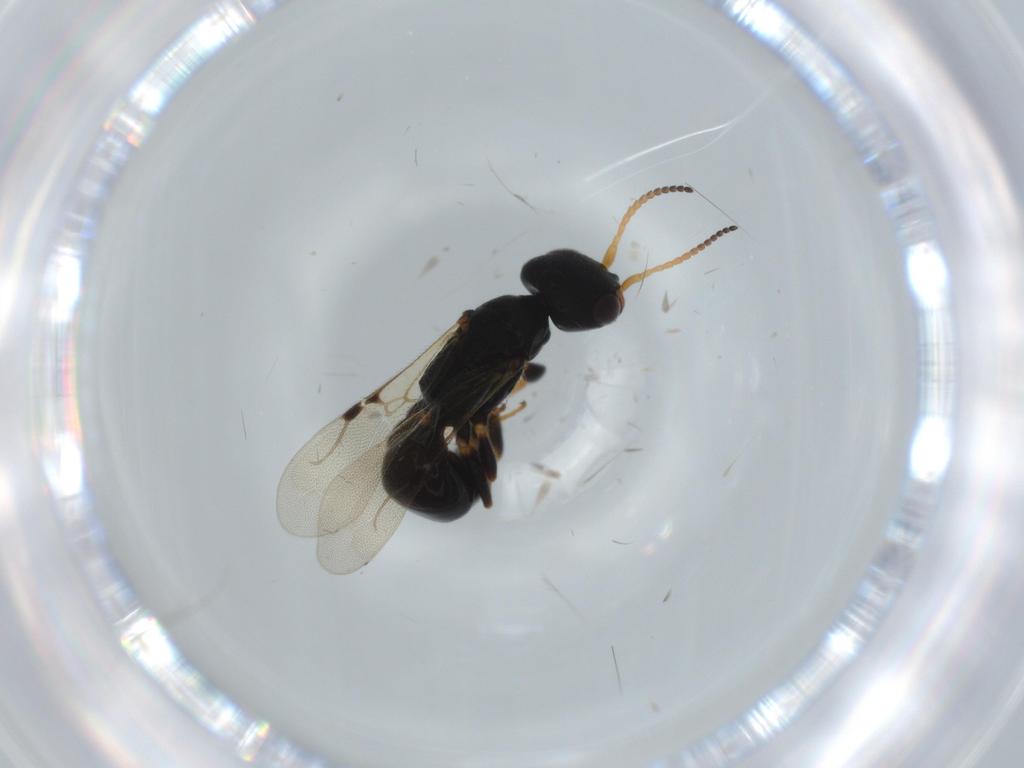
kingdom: Animalia
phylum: Arthropoda
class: Insecta
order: Hymenoptera
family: Bethylidae
